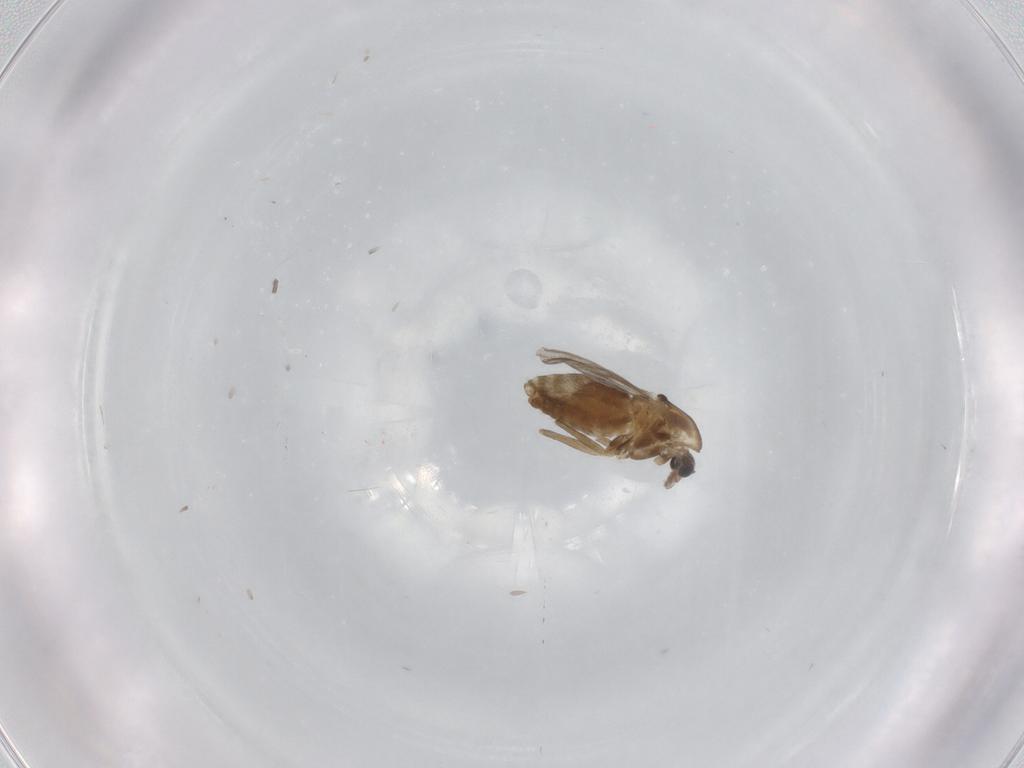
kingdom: Animalia
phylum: Arthropoda
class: Insecta
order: Diptera
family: Chironomidae
